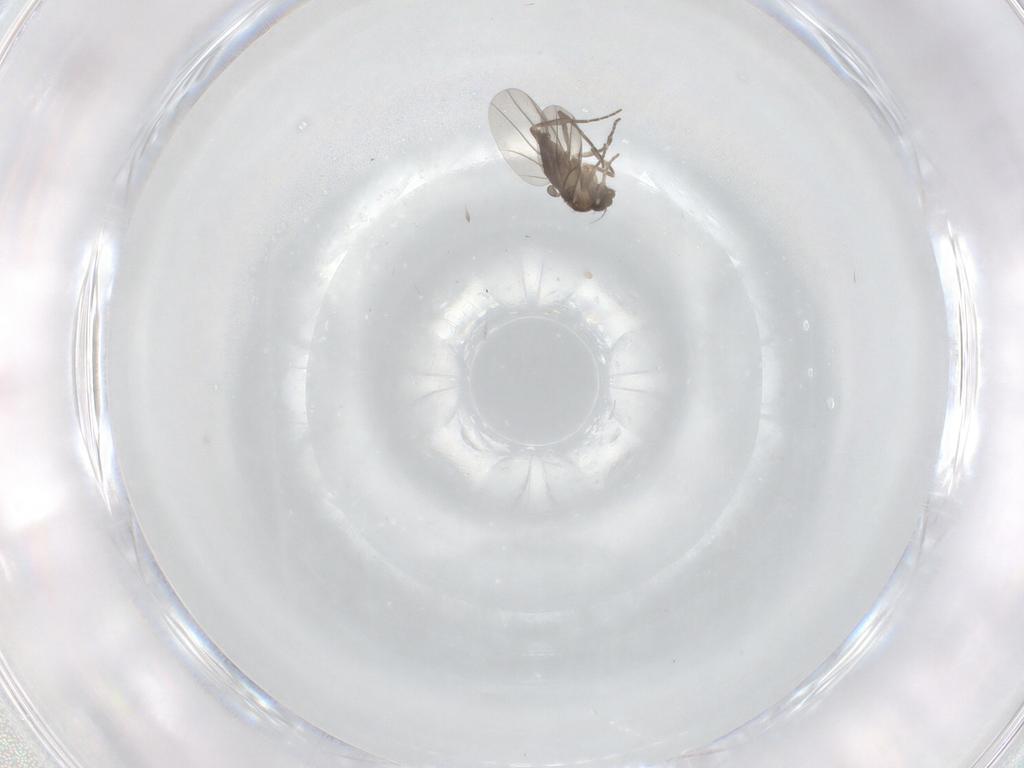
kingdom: Animalia
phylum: Arthropoda
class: Insecta
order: Diptera
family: Phoridae
